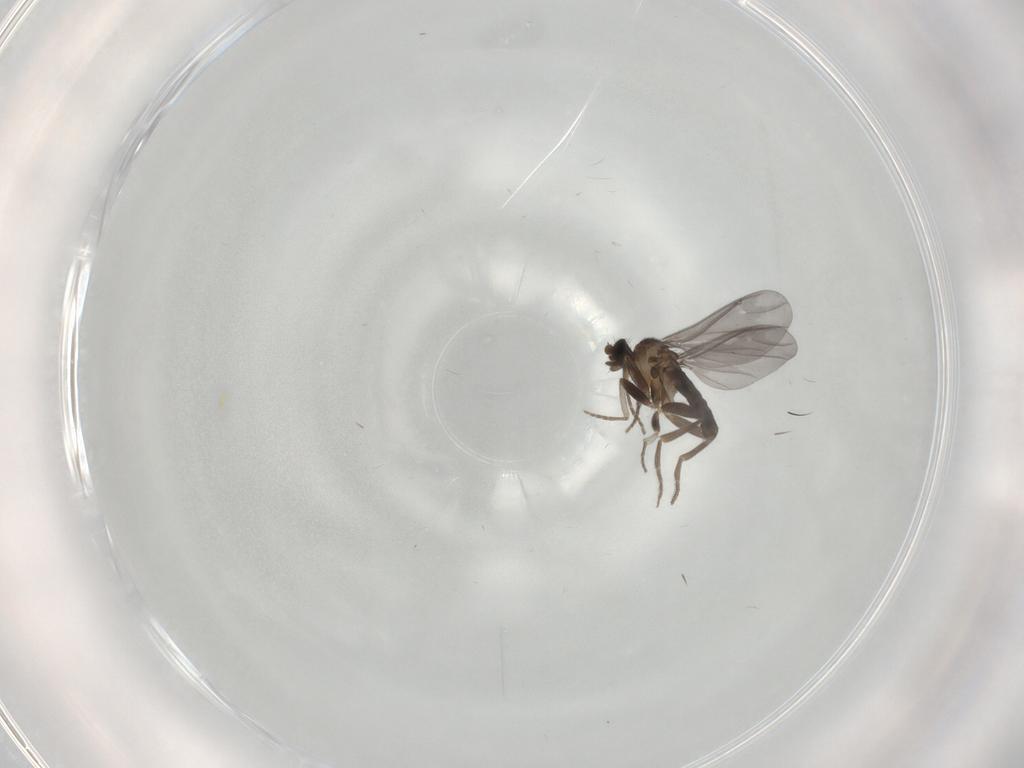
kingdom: Animalia
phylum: Arthropoda
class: Insecta
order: Diptera
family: Phoridae
